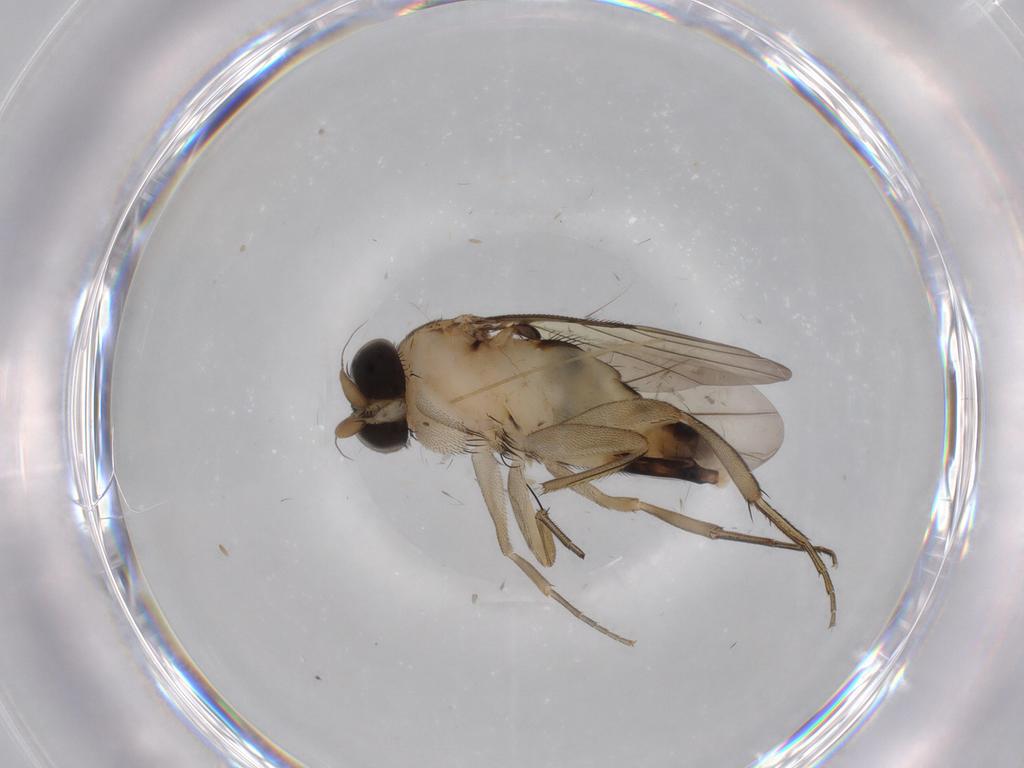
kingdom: Animalia
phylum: Arthropoda
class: Insecta
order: Diptera
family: Phoridae
